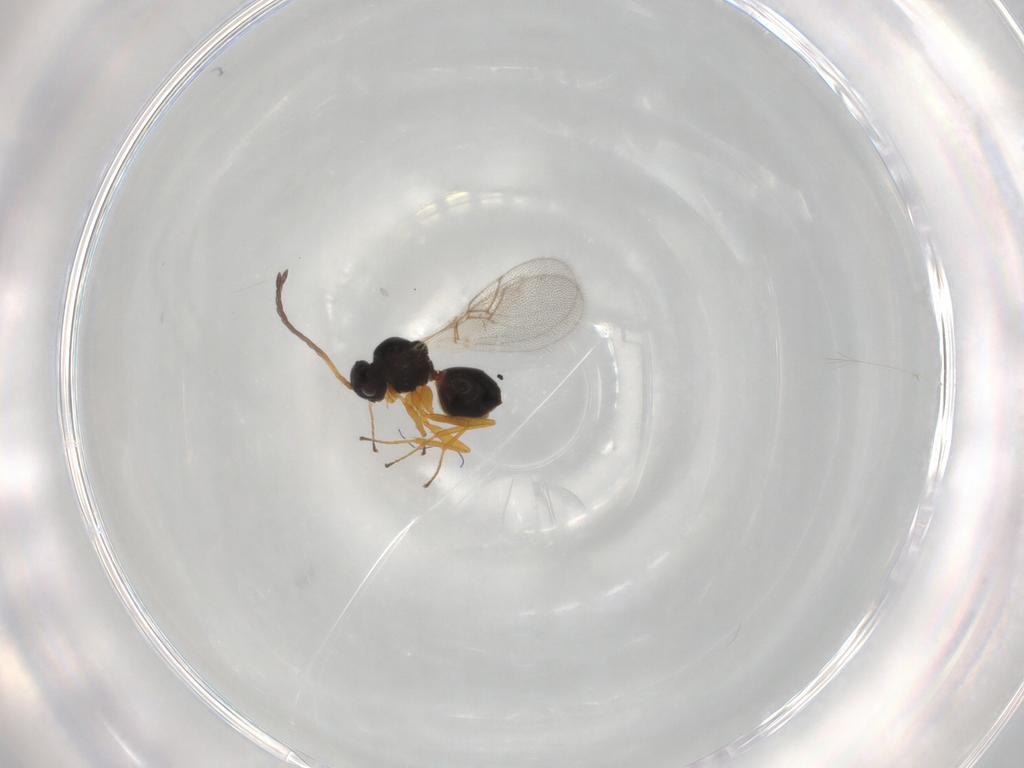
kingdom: Animalia
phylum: Arthropoda
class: Insecta
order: Hymenoptera
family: Figitidae
